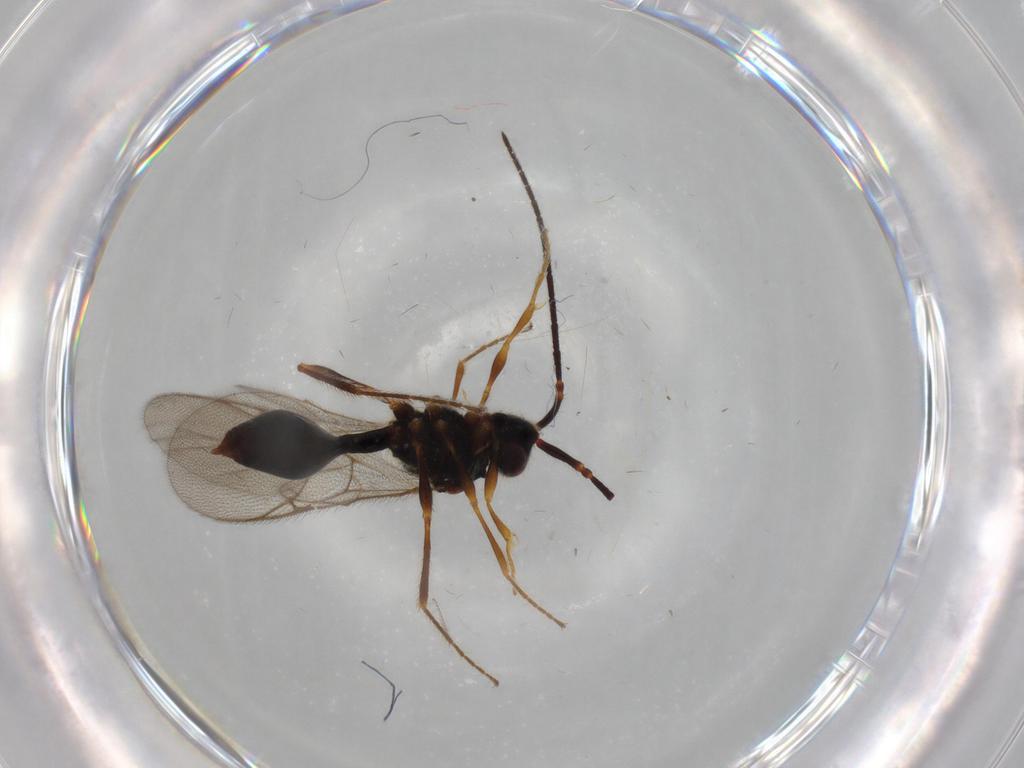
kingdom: Animalia
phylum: Arthropoda
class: Insecta
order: Hymenoptera
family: Diapriidae
